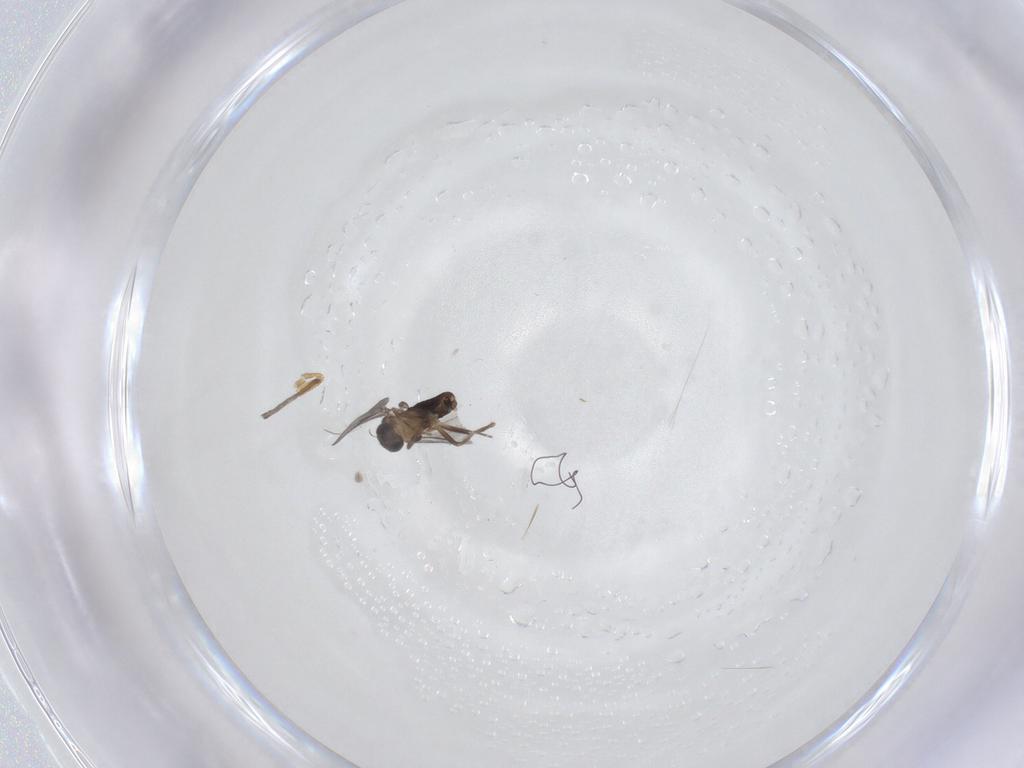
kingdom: Animalia
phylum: Arthropoda
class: Insecta
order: Diptera
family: Phoridae
